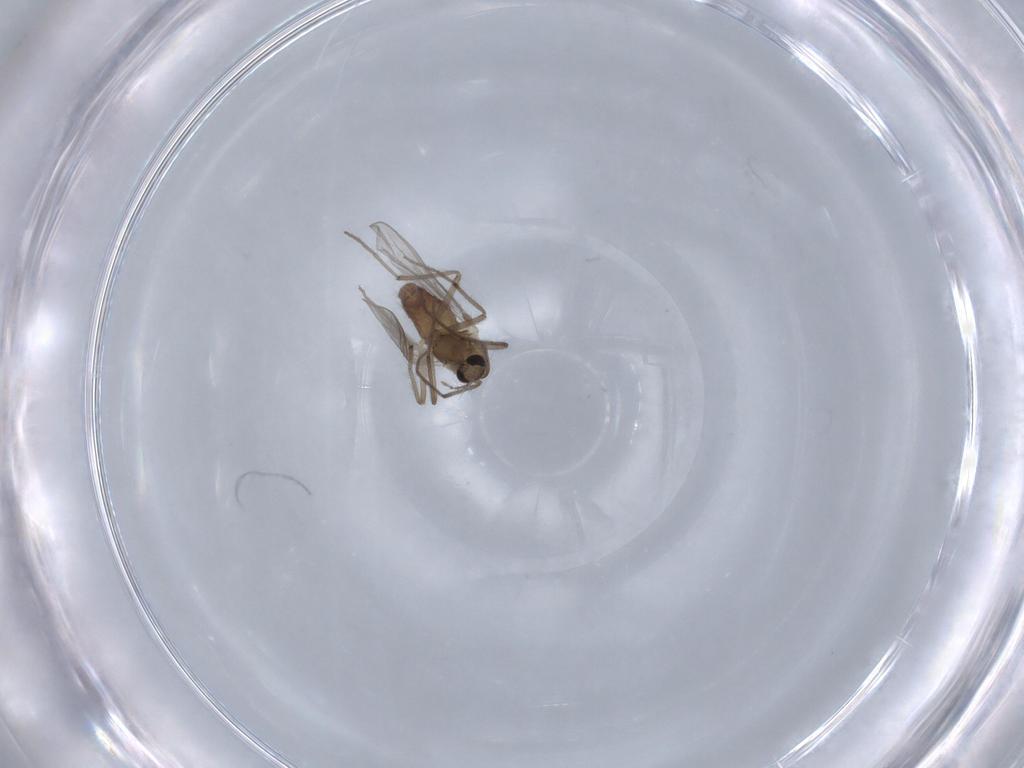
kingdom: Animalia
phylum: Arthropoda
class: Insecta
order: Diptera
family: Chironomidae
